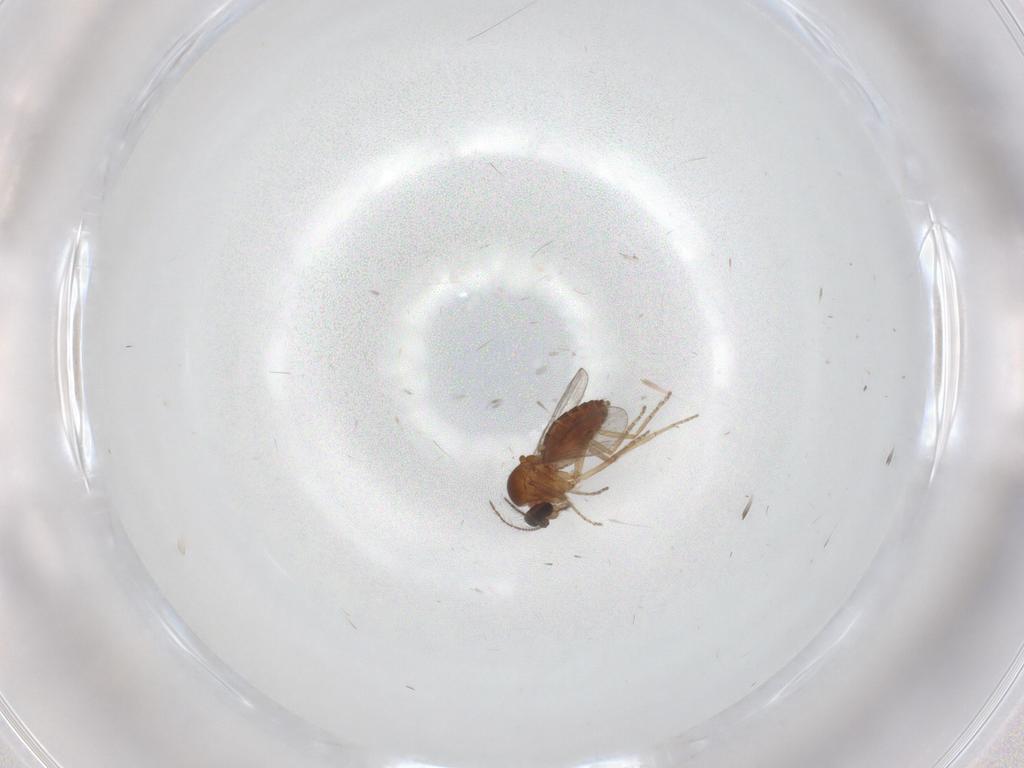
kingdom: Animalia
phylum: Arthropoda
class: Insecta
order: Diptera
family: Ceratopogonidae
